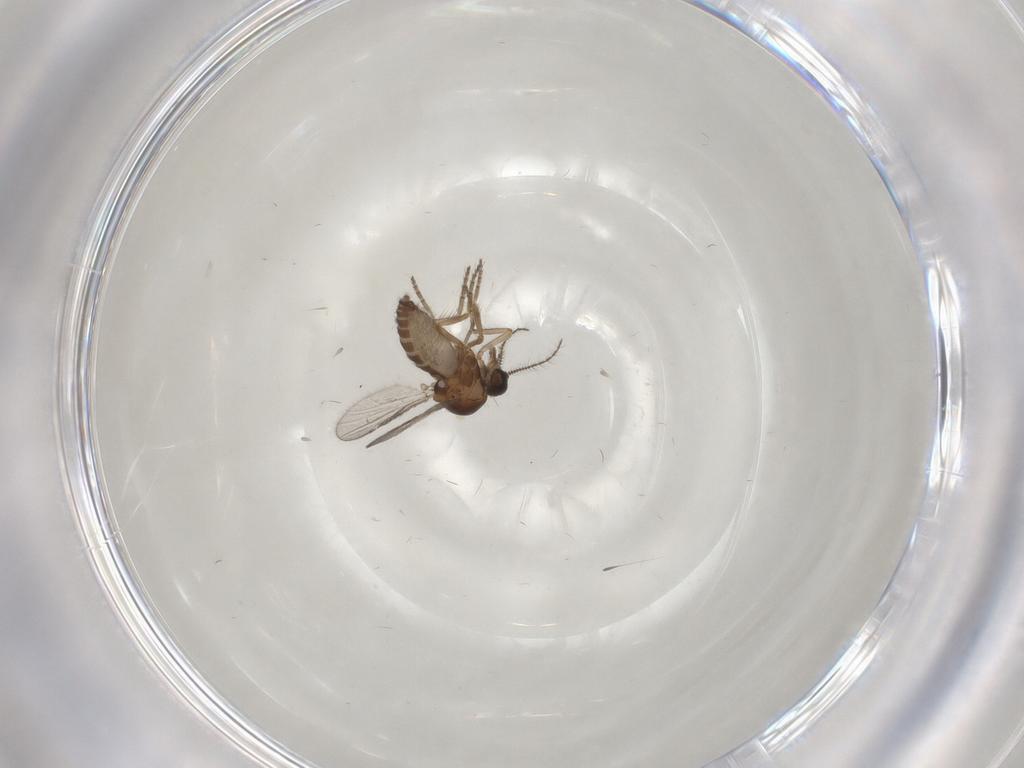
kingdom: Animalia
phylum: Arthropoda
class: Insecta
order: Diptera
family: Ceratopogonidae
